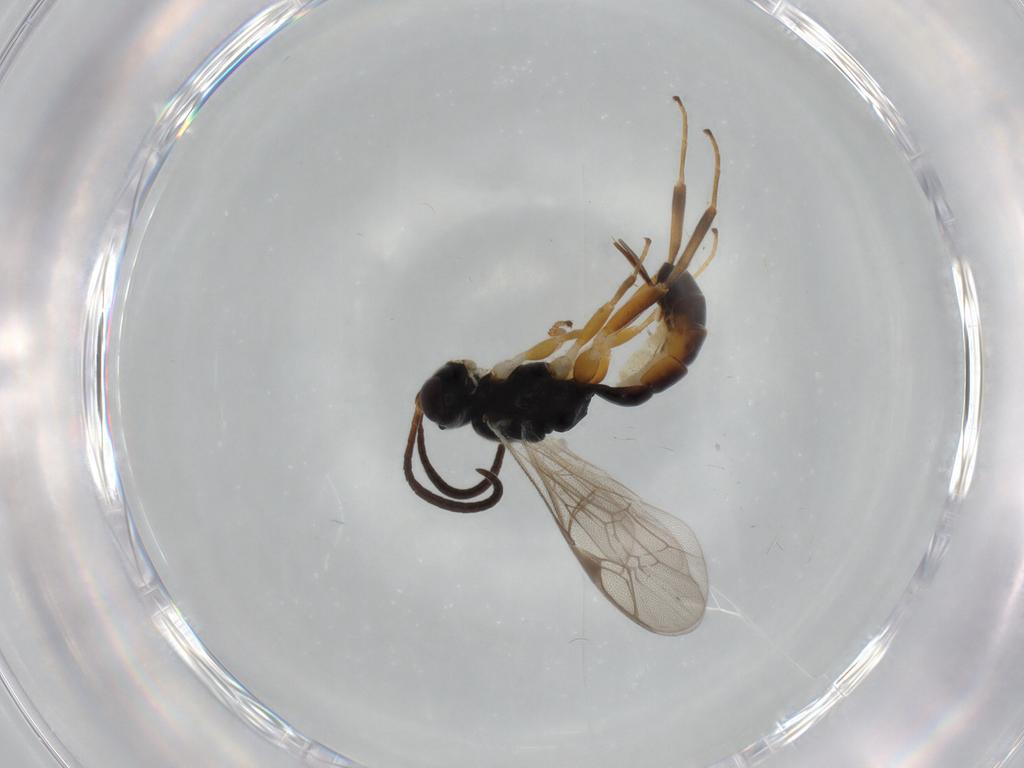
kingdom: Animalia
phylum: Arthropoda
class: Insecta
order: Hymenoptera
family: Ichneumonidae
